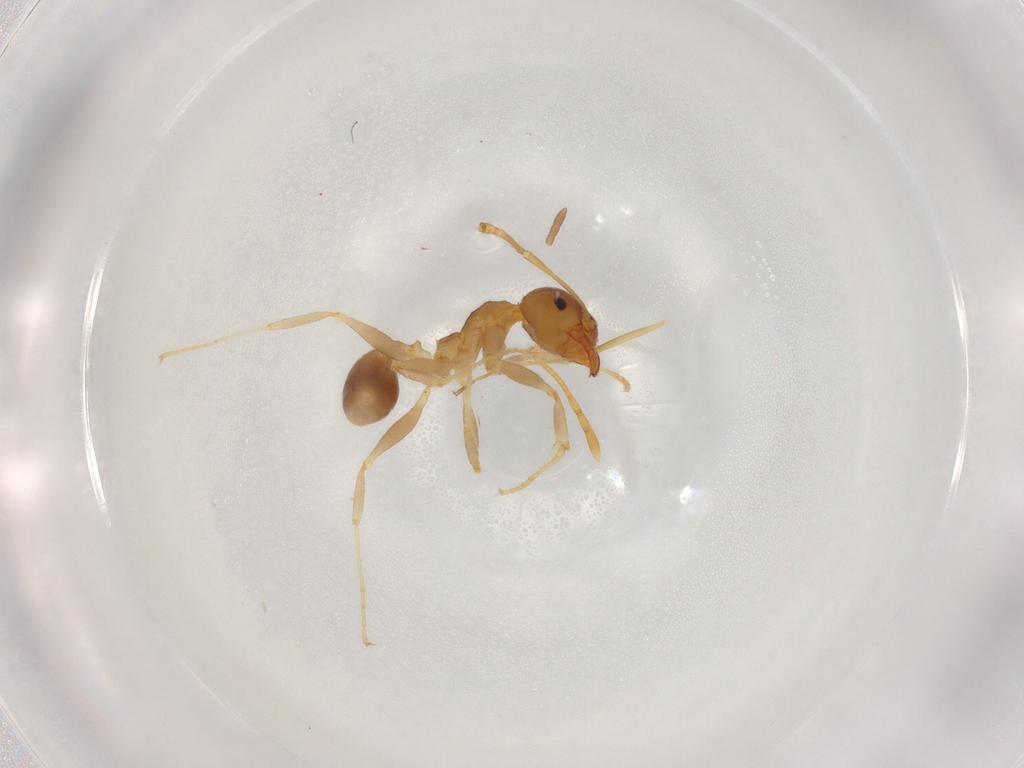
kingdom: Animalia
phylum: Arthropoda
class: Insecta
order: Hymenoptera
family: Formicidae
